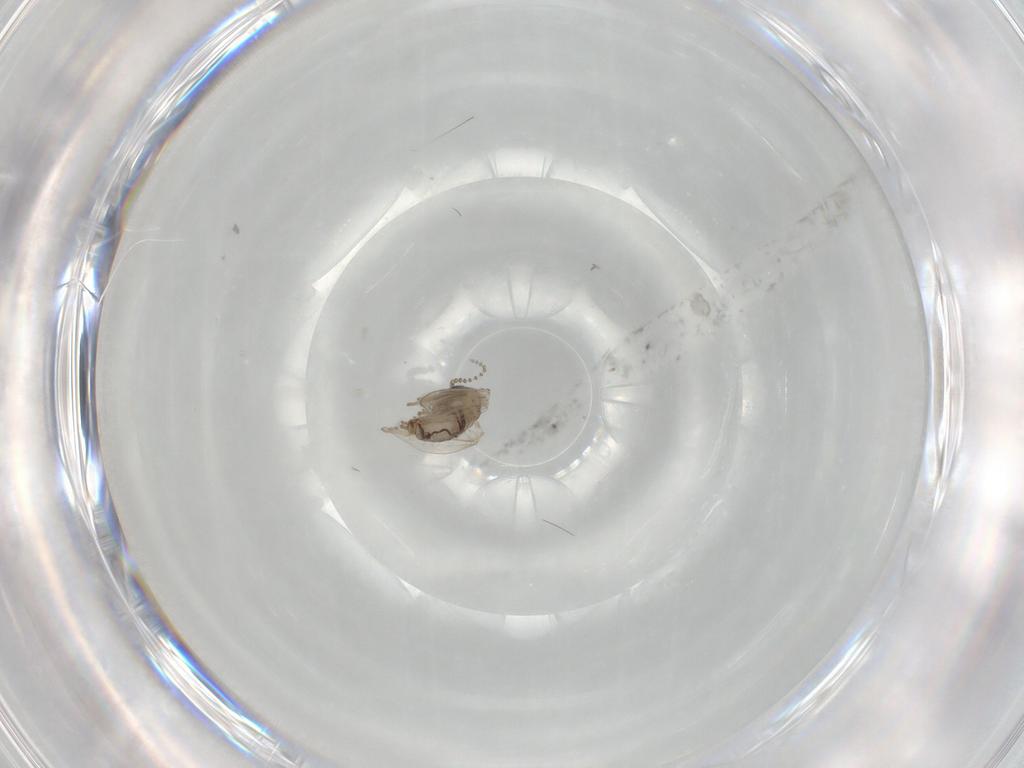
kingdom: Animalia
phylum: Arthropoda
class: Insecta
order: Diptera
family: Psychodidae
